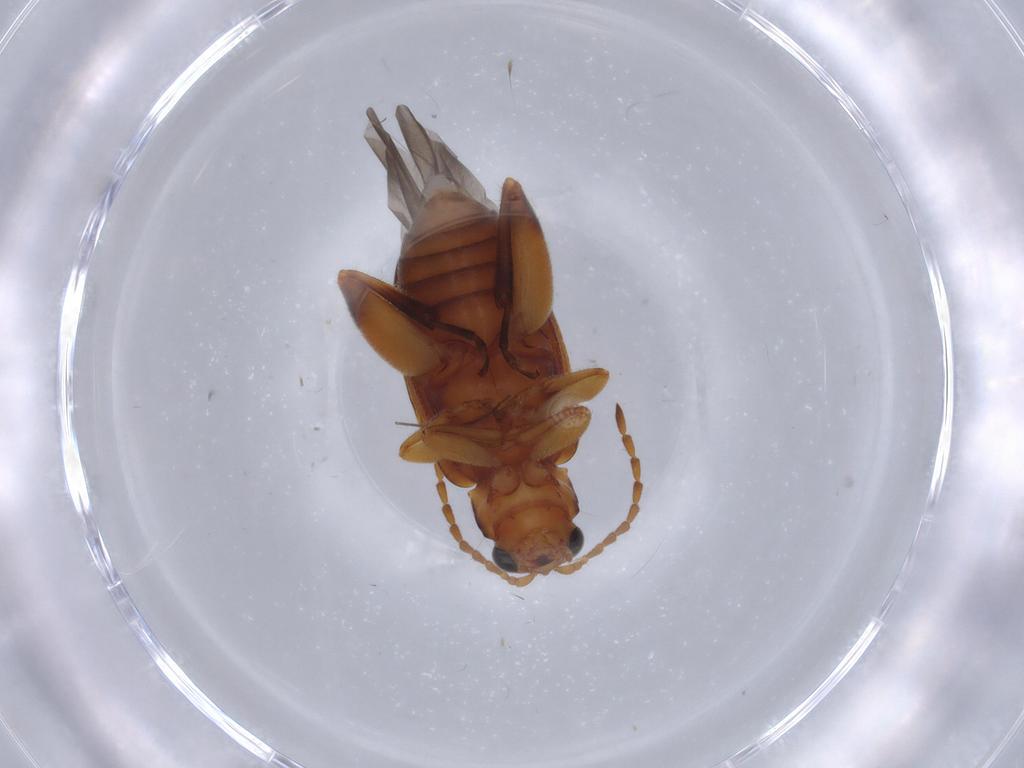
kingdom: Animalia
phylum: Arthropoda
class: Insecta
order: Coleoptera
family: Chrysomelidae
